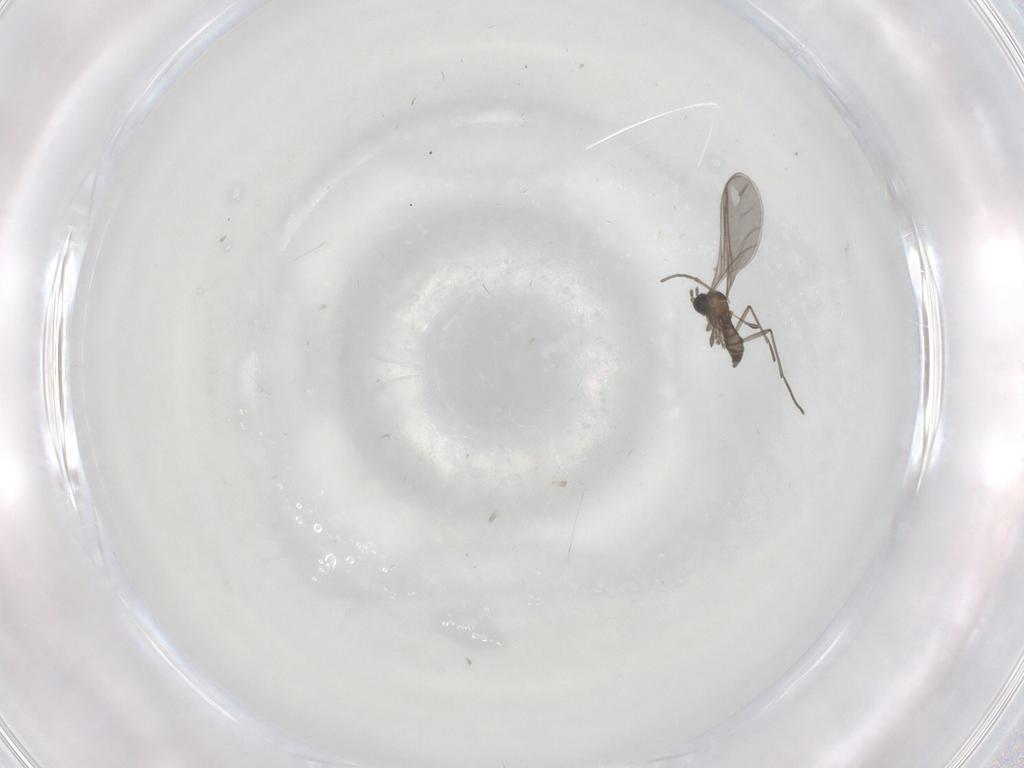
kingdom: Animalia
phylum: Arthropoda
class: Insecta
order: Diptera
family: Sciaridae
